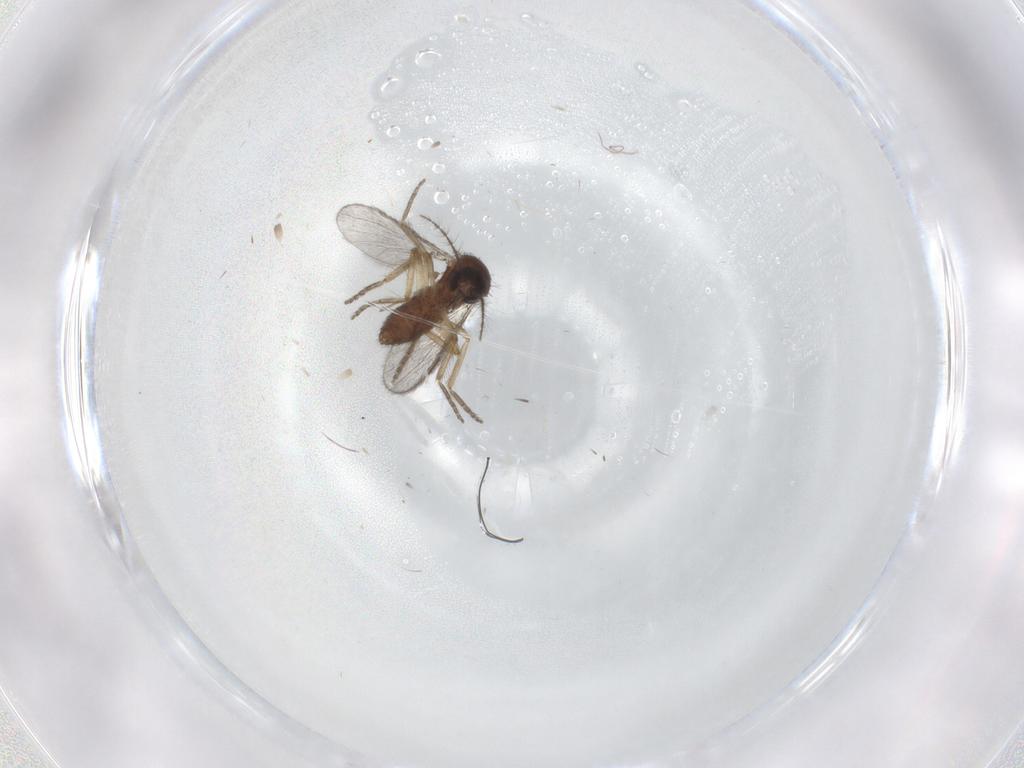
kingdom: Animalia
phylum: Arthropoda
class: Insecta
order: Diptera
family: Ceratopogonidae
